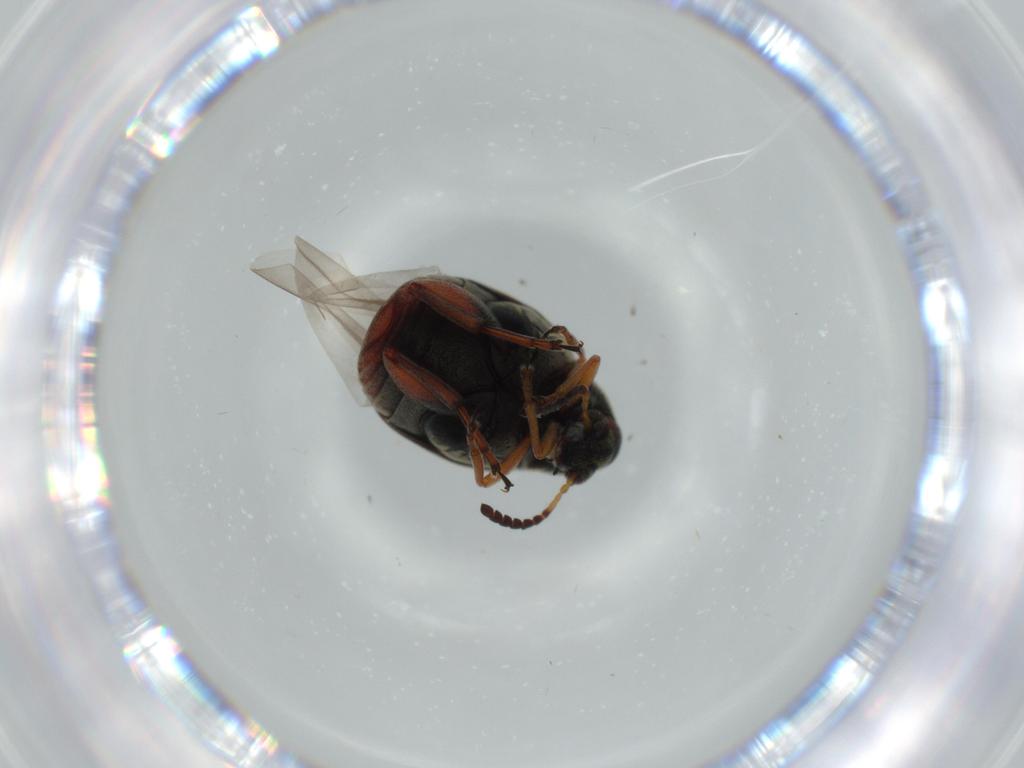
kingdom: Animalia
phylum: Arthropoda
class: Insecta
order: Coleoptera
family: Chrysomelidae
